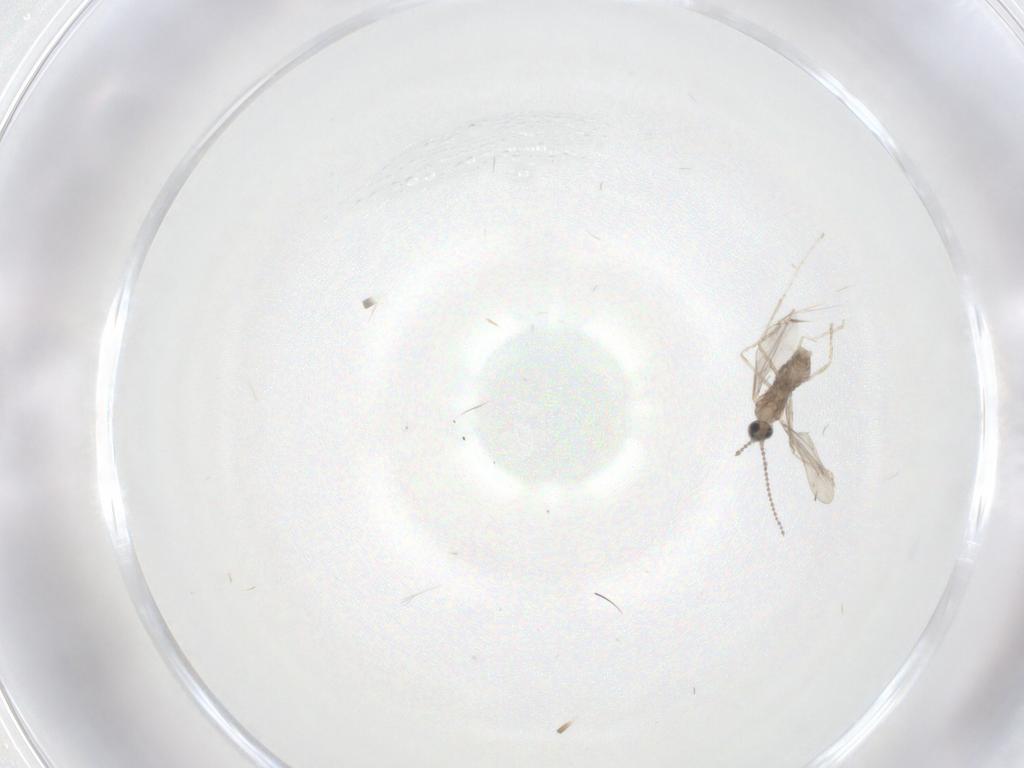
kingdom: Animalia
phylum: Arthropoda
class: Insecta
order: Diptera
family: Cecidomyiidae
